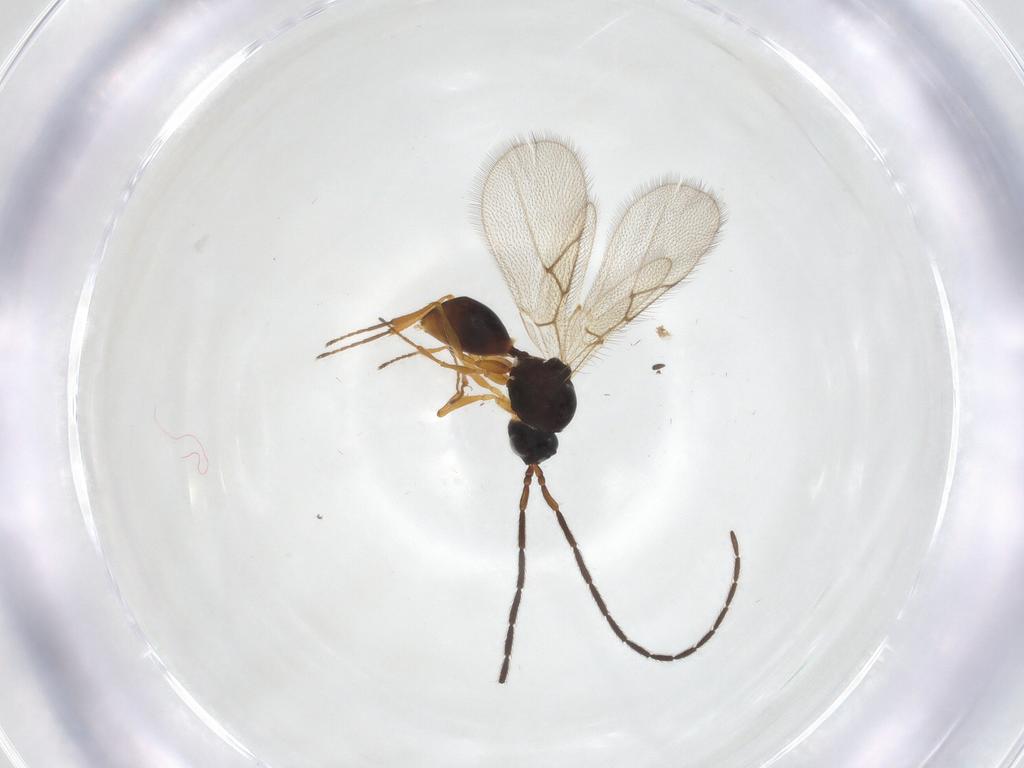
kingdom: Animalia
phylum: Arthropoda
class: Insecta
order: Hymenoptera
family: Figitidae
